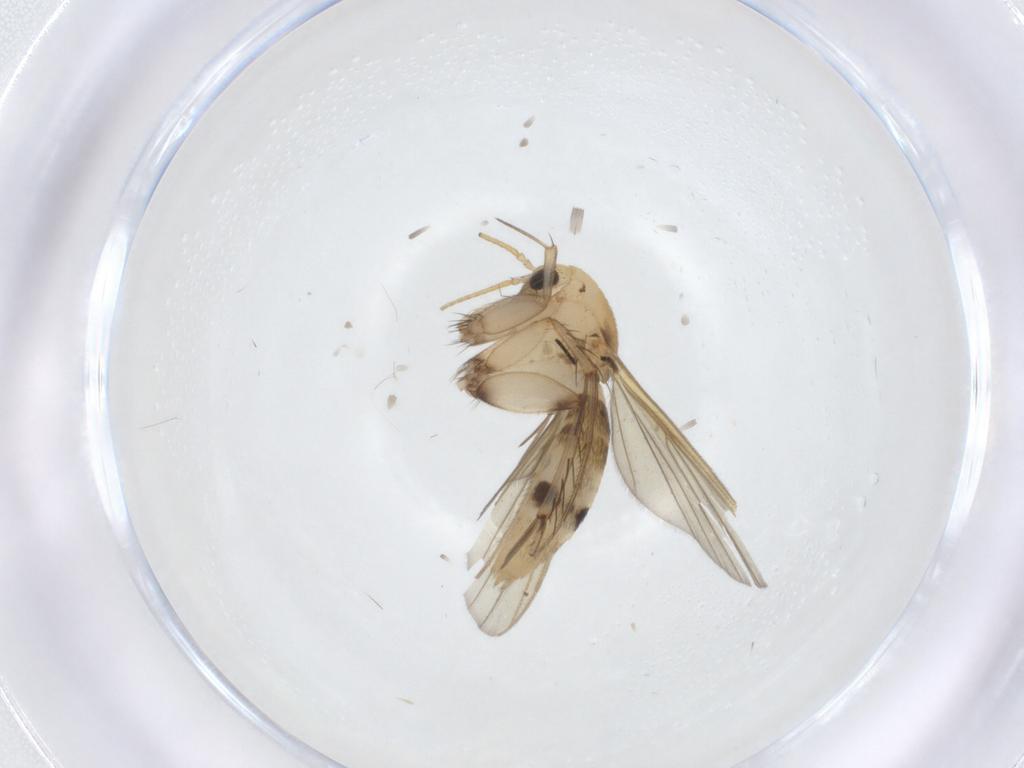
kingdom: Animalia
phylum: Arthropoda
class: Insecta
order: Diptera
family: Mycetophilidae
